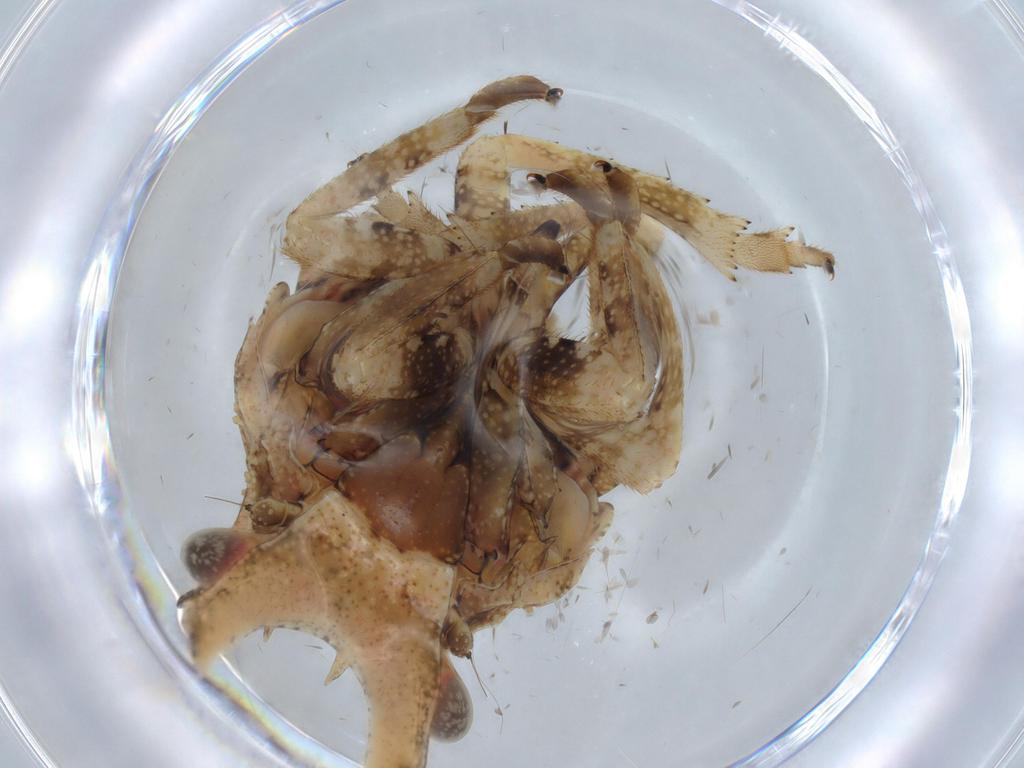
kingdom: Animalia
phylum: Arthropoda
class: Insecta
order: Hemiptera
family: Fulgoridae
